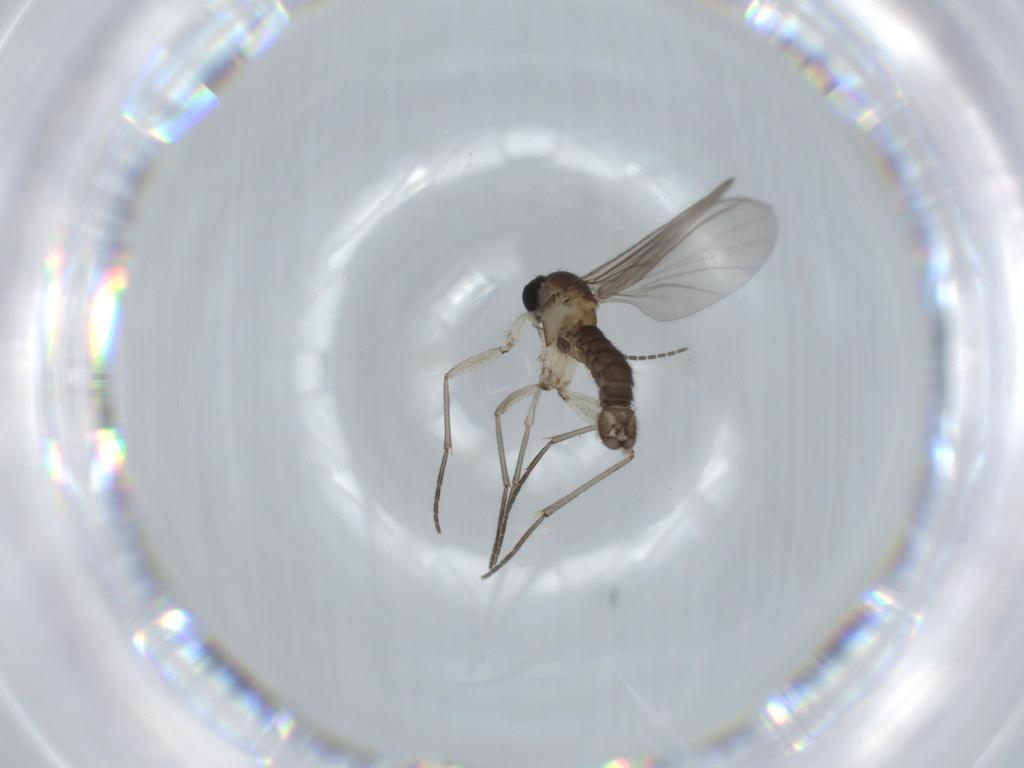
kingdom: Animalia
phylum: Arthropoda
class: Insecta
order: Diptera
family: Sciaridae
